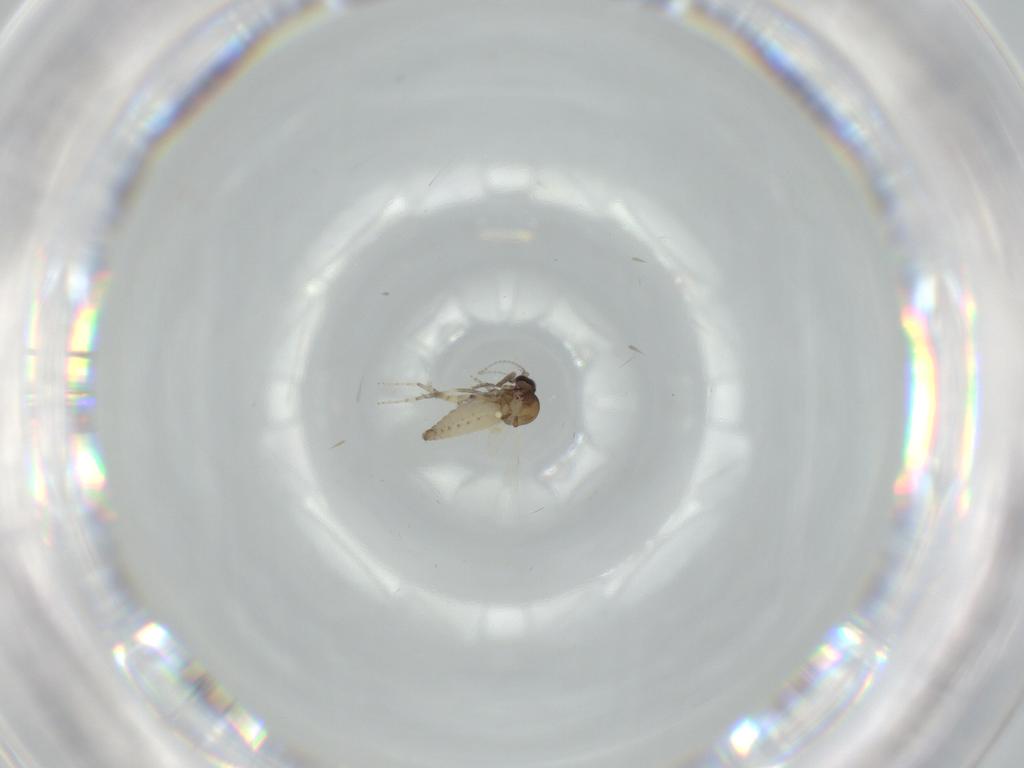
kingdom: Animalia
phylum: Arthropoda
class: Insecta
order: Diptera
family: Ceratopogonidae
